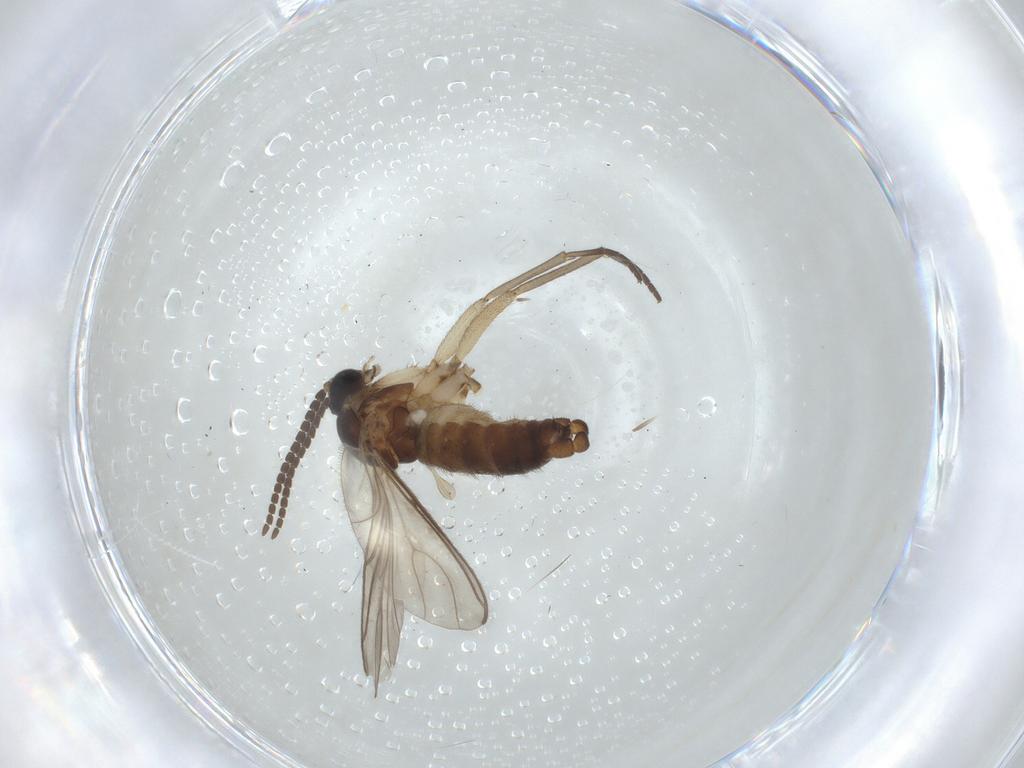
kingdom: Animalia
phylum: Arthropoda
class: Insecta
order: Diptera
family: Sciaridae
